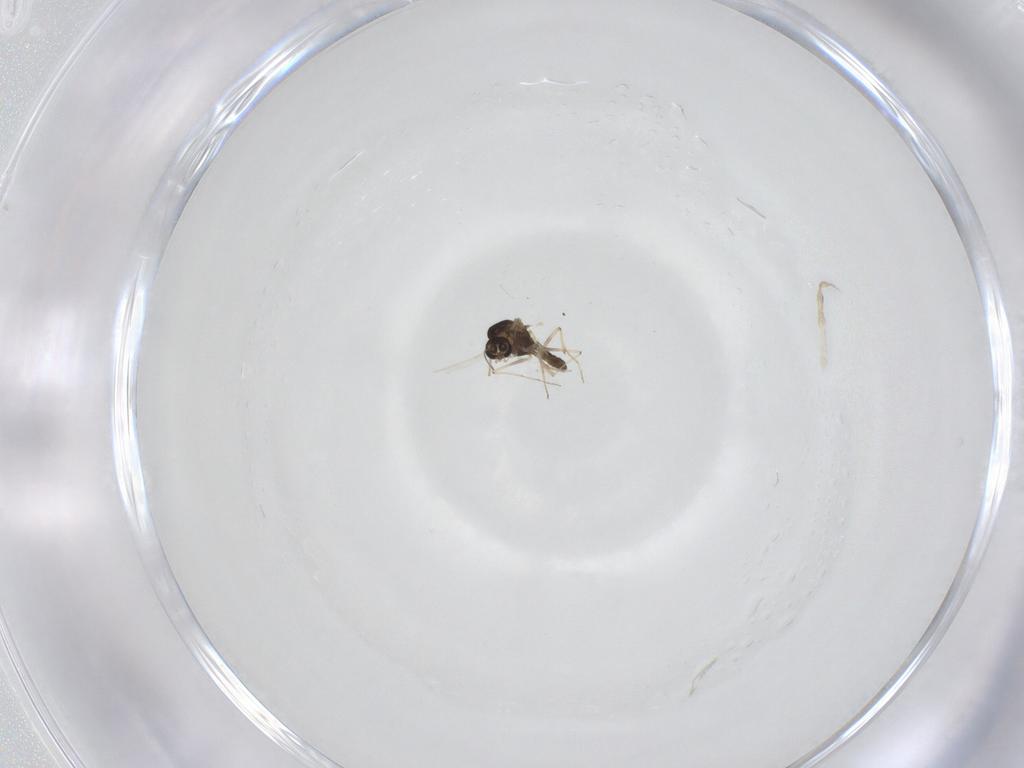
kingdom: Animalia
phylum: Arthropoda
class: Insecta
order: Diptera
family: Chironomidae
